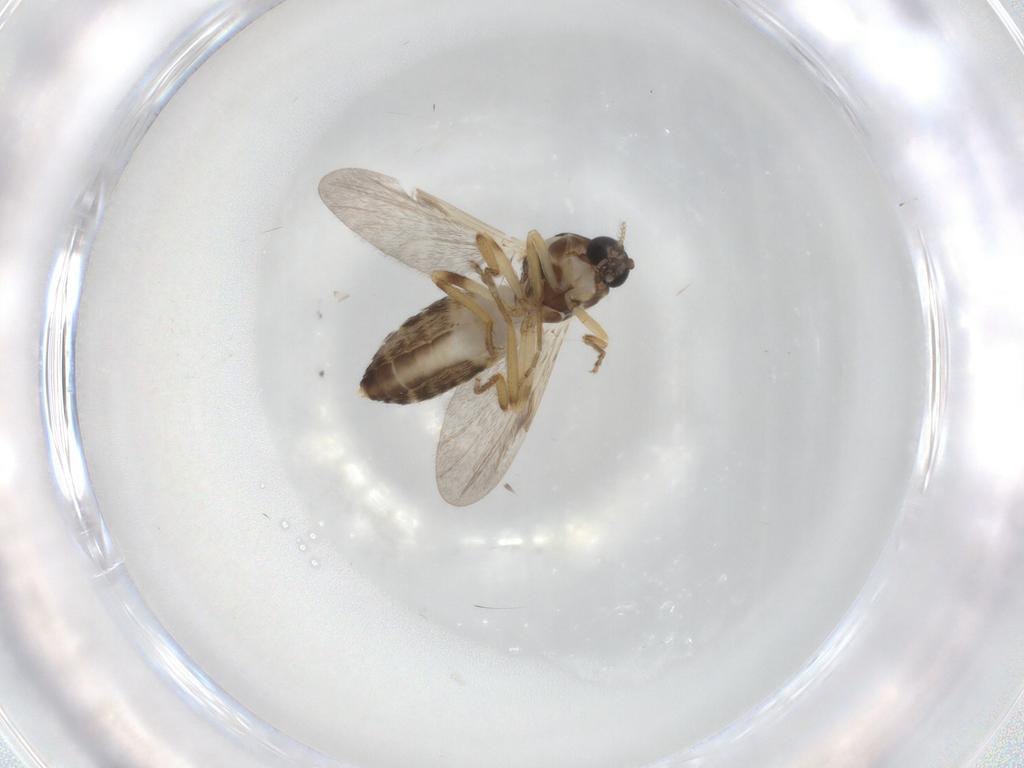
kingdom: Animalia
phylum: Arthropoda
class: Insecta
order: Diptera
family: Ceratopogonidae
